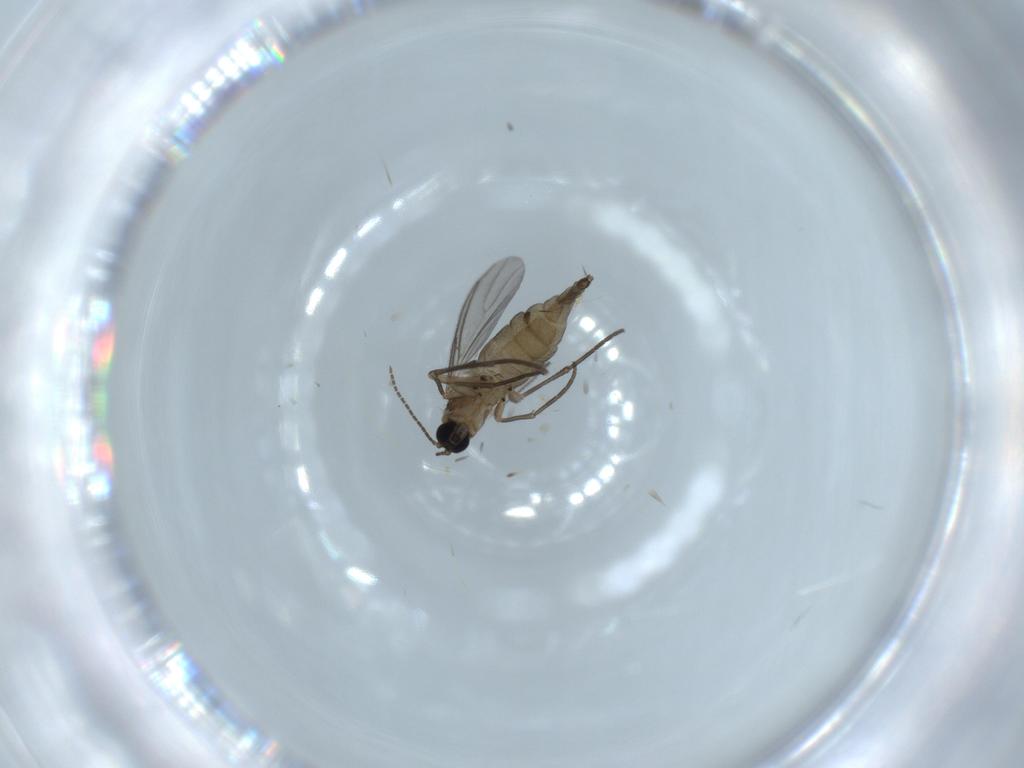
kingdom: Animalia
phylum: Arthropoda
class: Insecta
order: Diptera
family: Sciaridae
